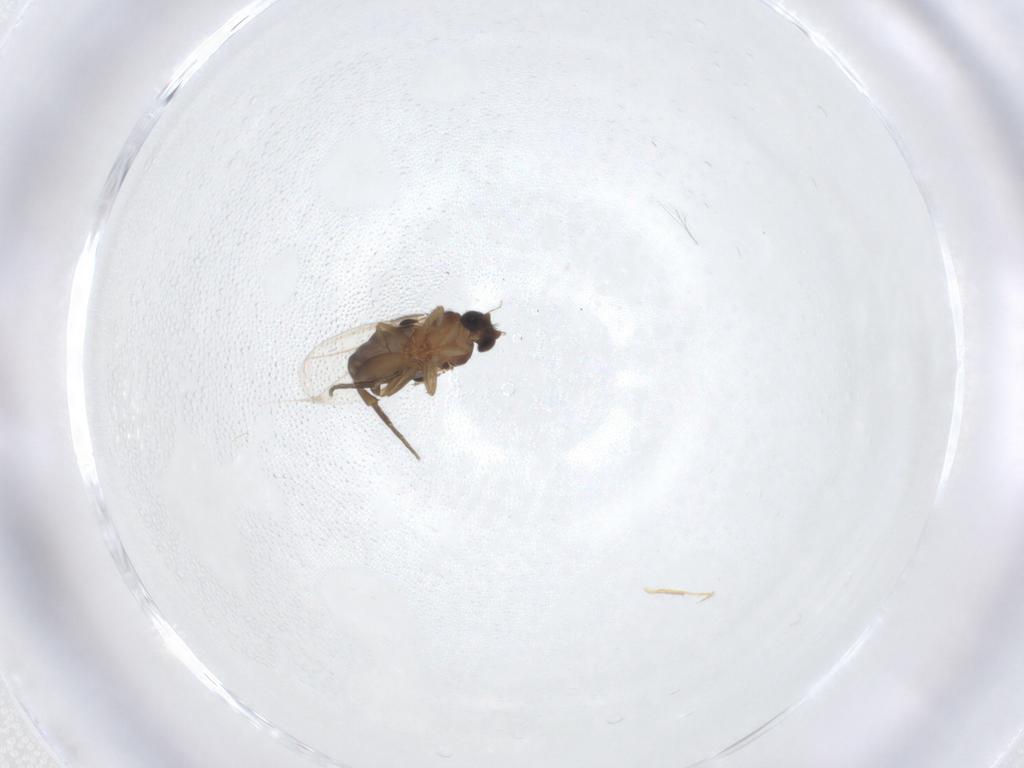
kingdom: Animalia
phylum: Arthropoda
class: Insecta
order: Diptera
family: Phoridae
